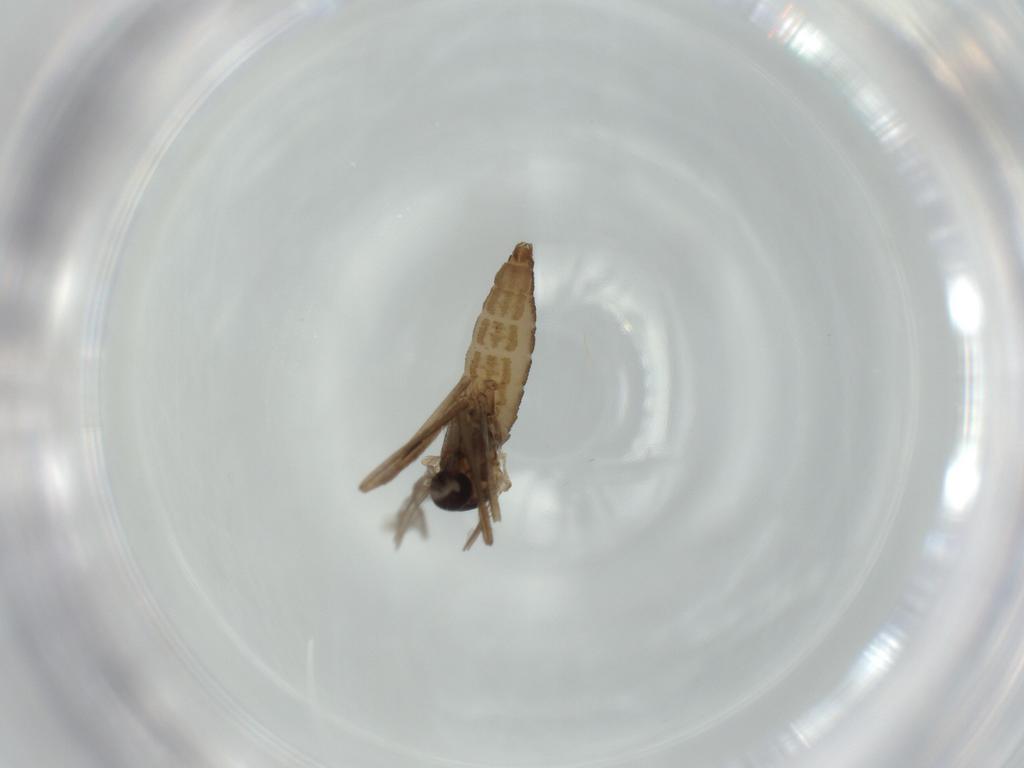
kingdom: Animalia
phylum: Arthropoda
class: Insecta
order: Diptera
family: Cecidomyiidae
